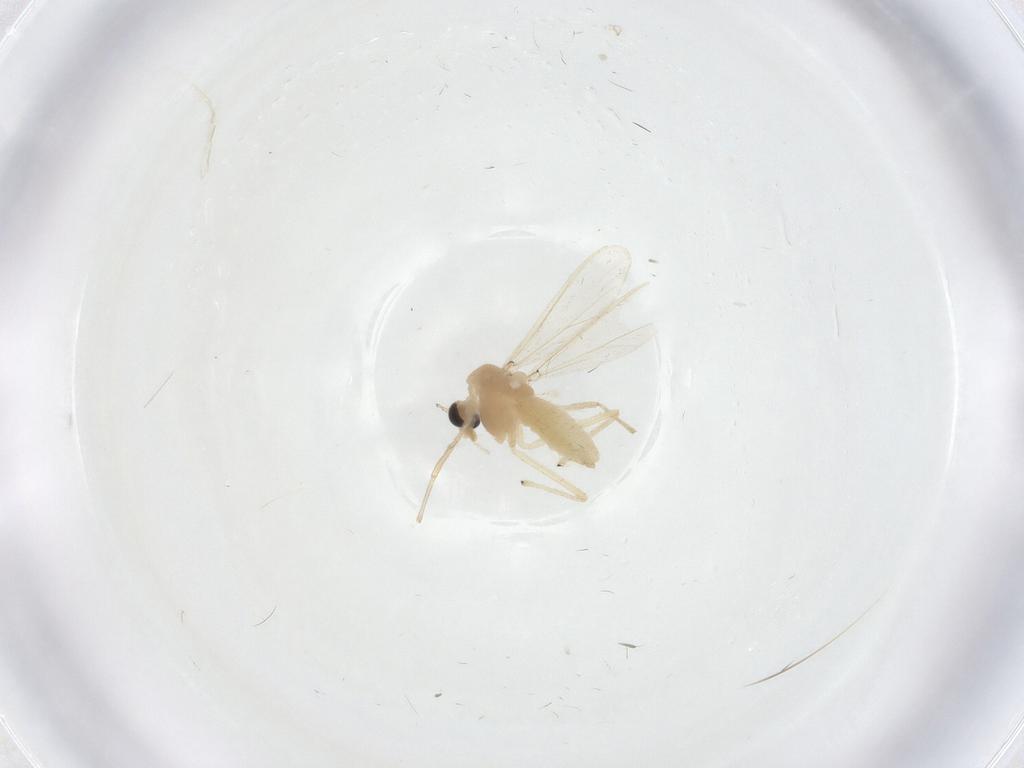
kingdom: Animalia
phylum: Arthropoda
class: Insecta
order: Diptera
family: Chironomidae
